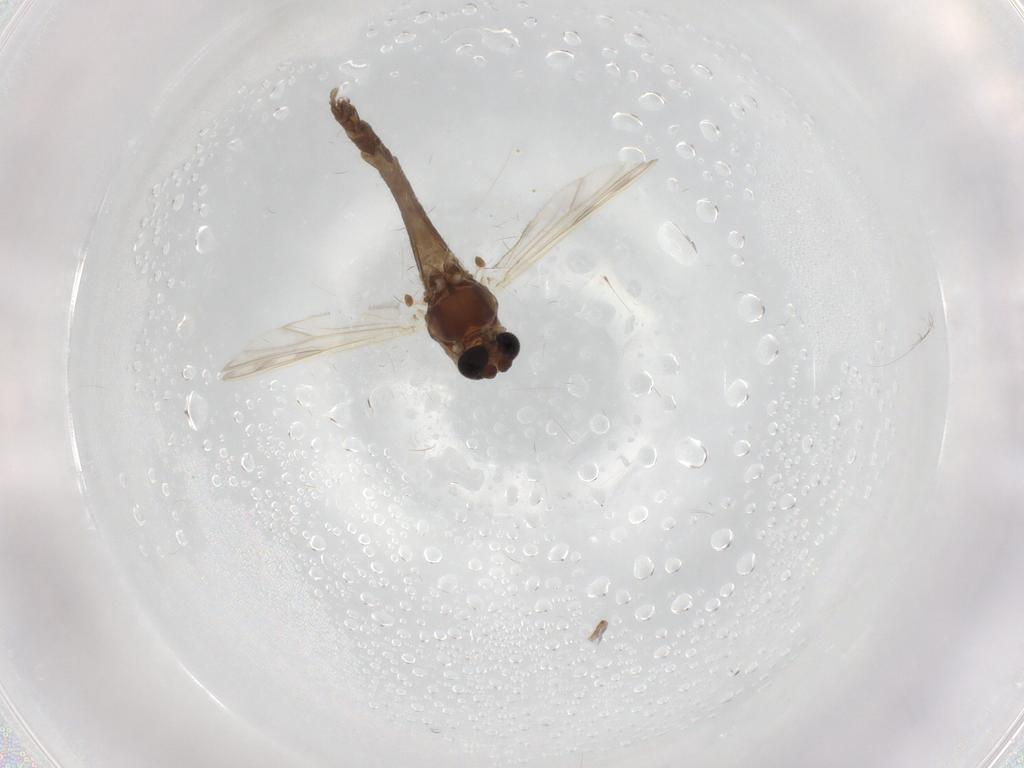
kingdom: Animalia
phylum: Arthropoda
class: Insecta
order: Diptera
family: Chironomidae
